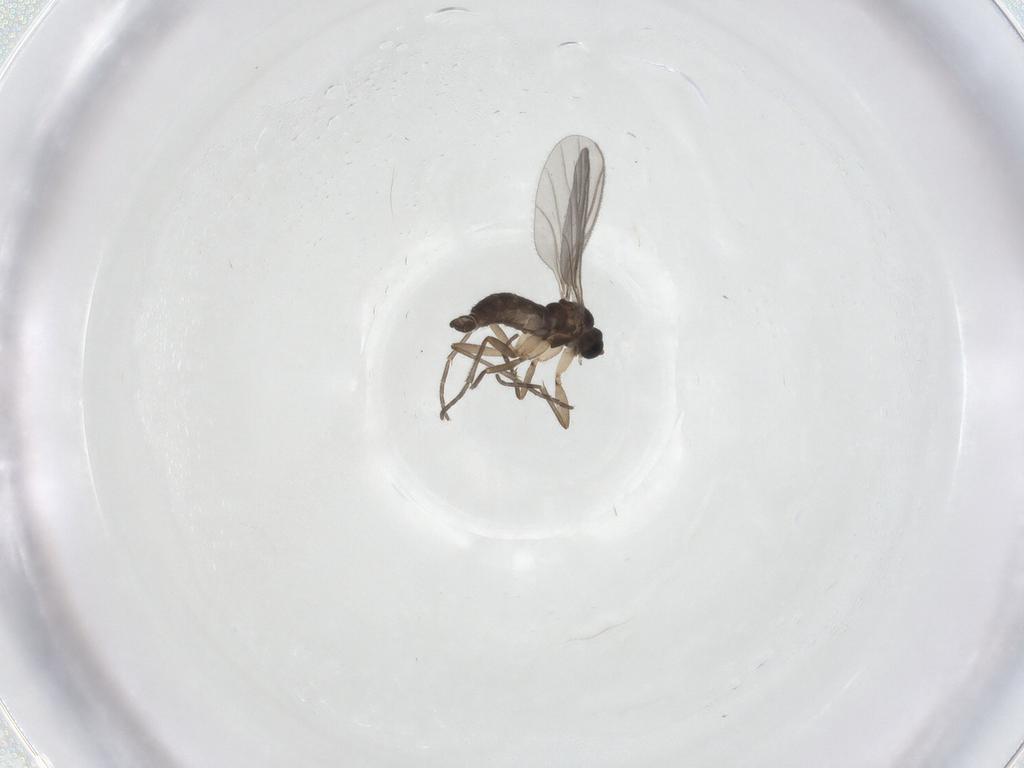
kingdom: Animalia
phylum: Arthropoda
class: Insecta
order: Diptera
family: Sciaridae
